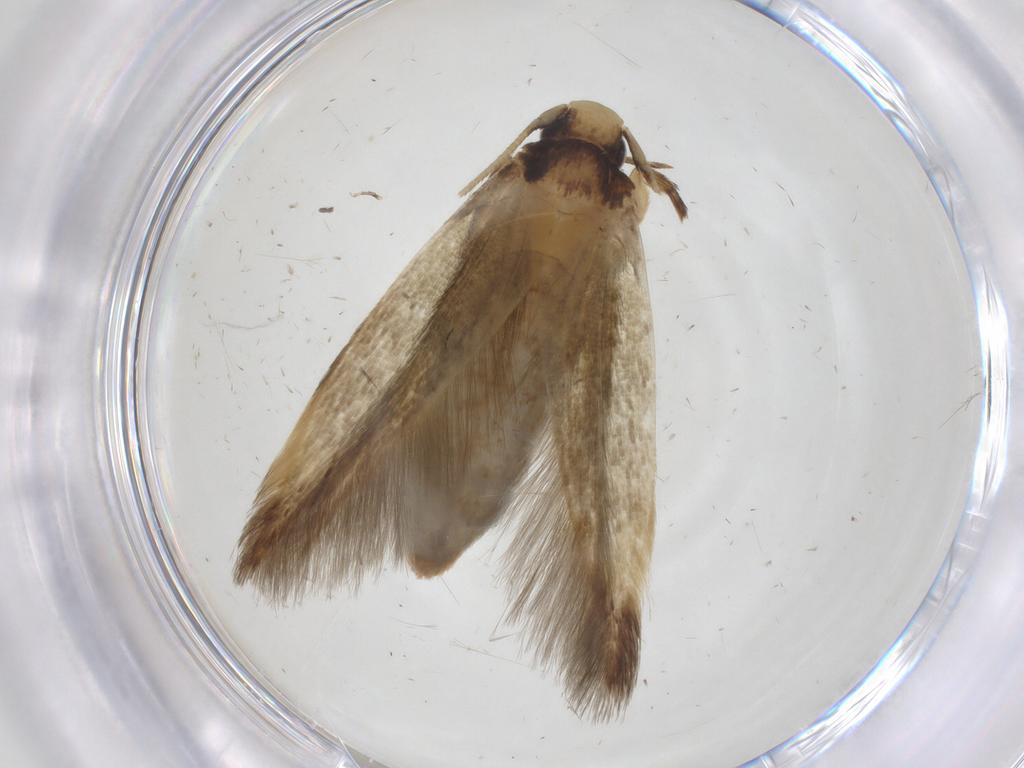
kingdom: Animalia
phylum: Arthropoda
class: Insecta
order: Lepidoptera
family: Tineidae
